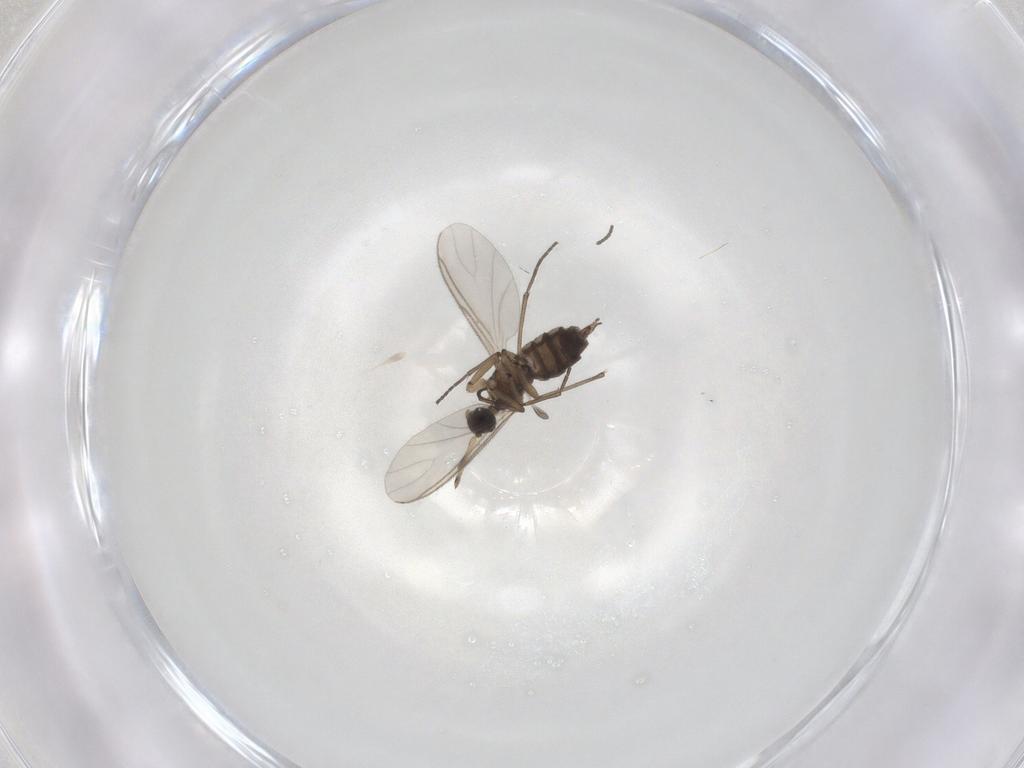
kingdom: Animalia
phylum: Arthropoda
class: Insecta
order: Diptera
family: Sciaridae
